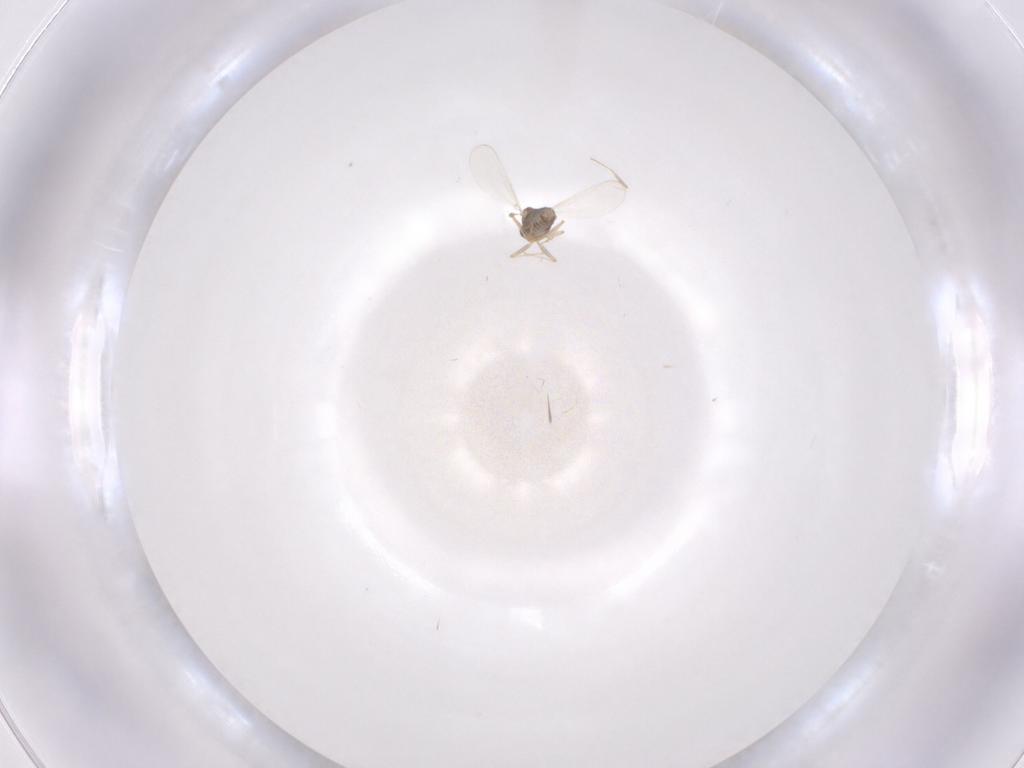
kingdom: Animalia
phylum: Arthropoda
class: Insecta
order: Diptera
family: Chironomidae
